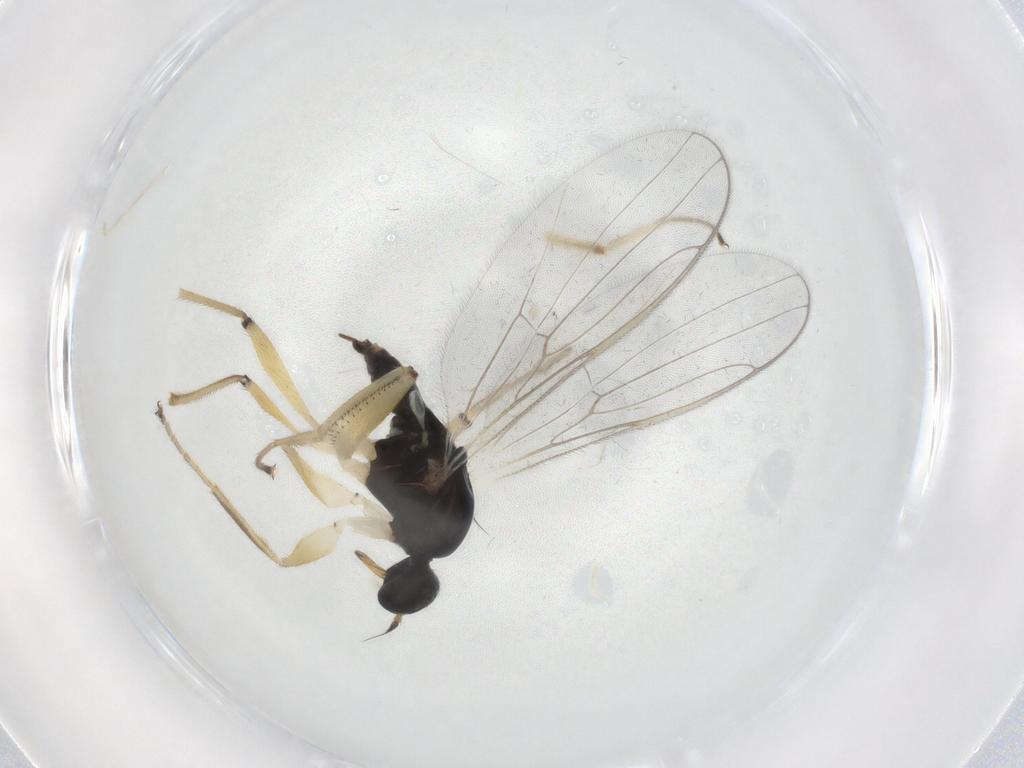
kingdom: Animalia
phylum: Arthropoda
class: Insecta
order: Diptera
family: Hybotidae
